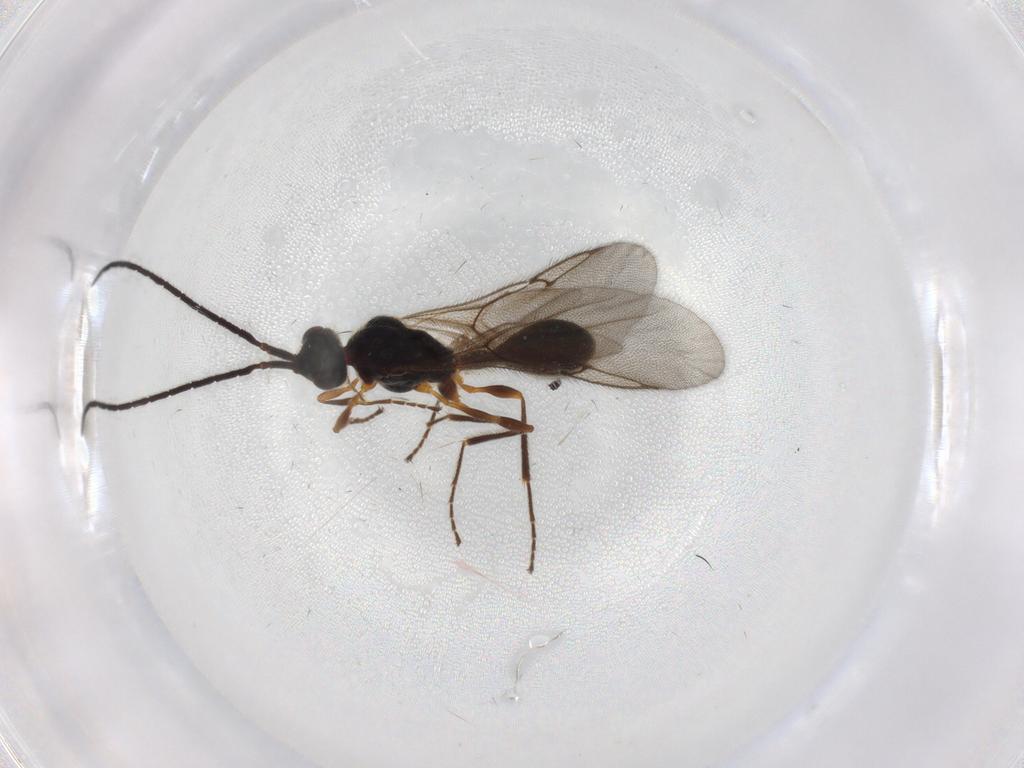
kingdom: Animalia
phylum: Arthropoda
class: Insecta
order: Hymenoptera
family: Diapriidae
